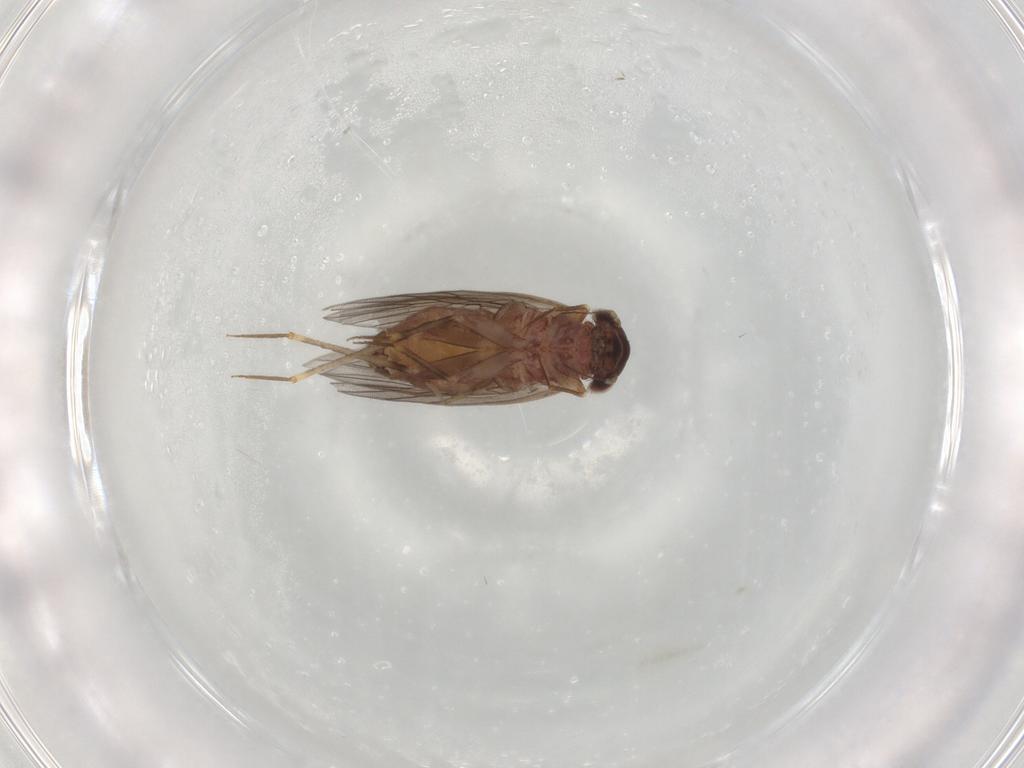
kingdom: Animalia
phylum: Arthropoda
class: Insecta
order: Psocodea
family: Lepidopsocidae
